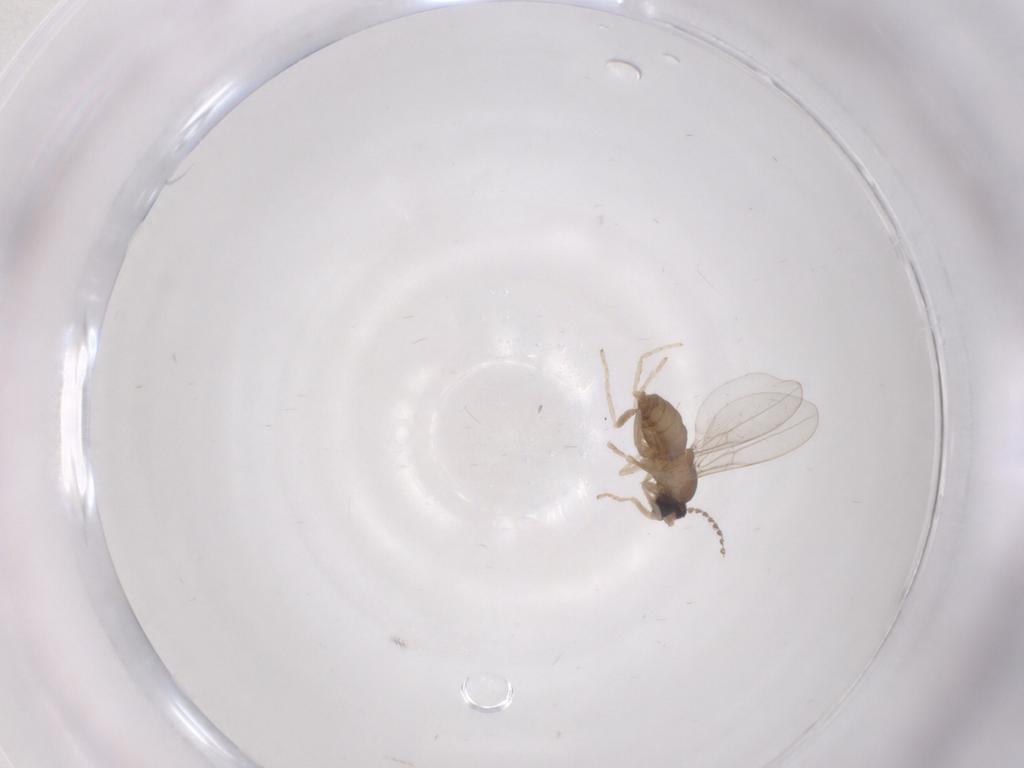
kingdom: Animalia
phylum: Arthropoda
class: Insecta
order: Diptera
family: Cecidomyiidae
